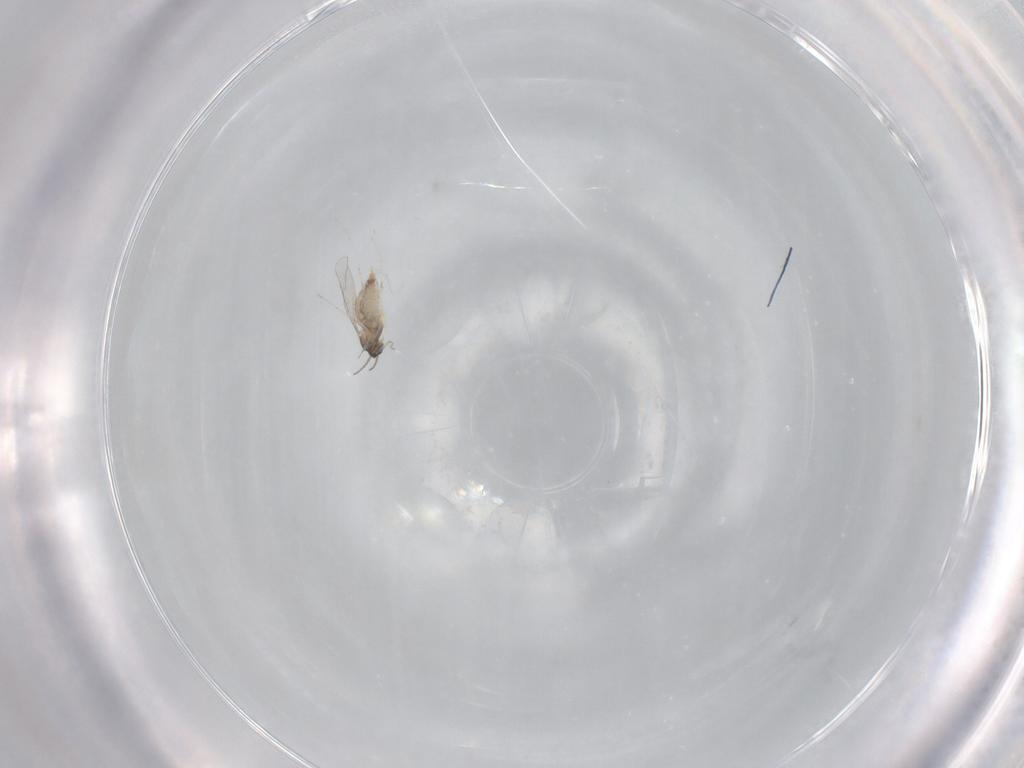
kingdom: Animalia
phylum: Arthropoda
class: Insecta
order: Diptera
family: Cecidomyiidae
